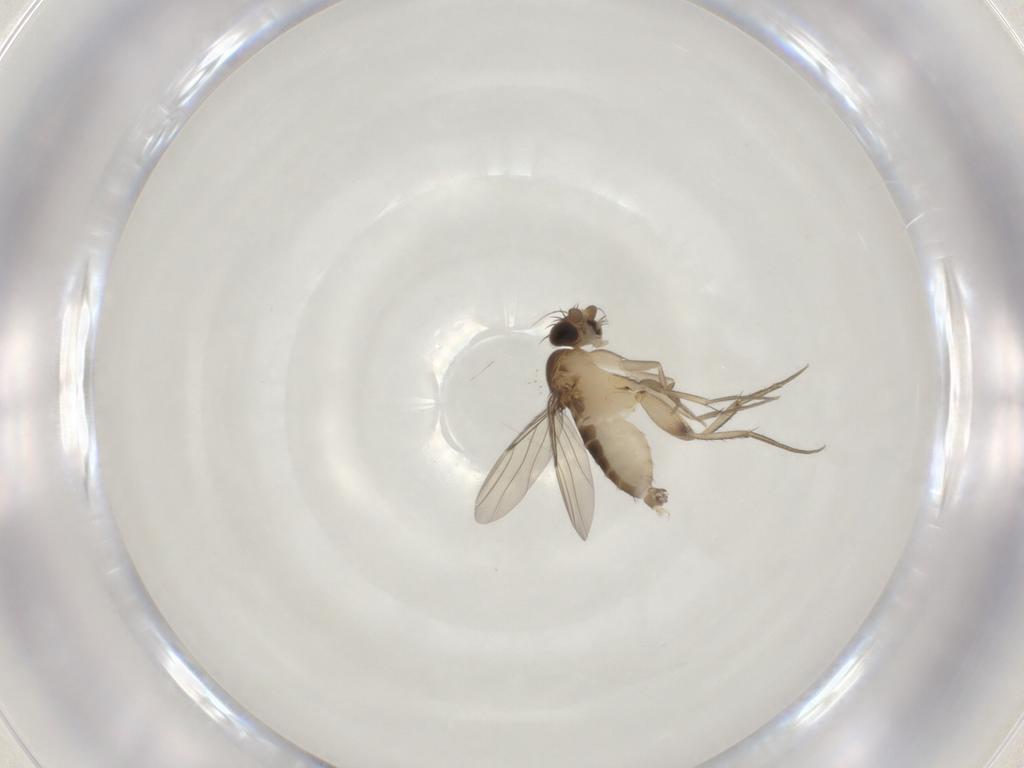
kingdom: Animalia
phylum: Arthropoda
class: Insecta
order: Diptera
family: Phoridae
